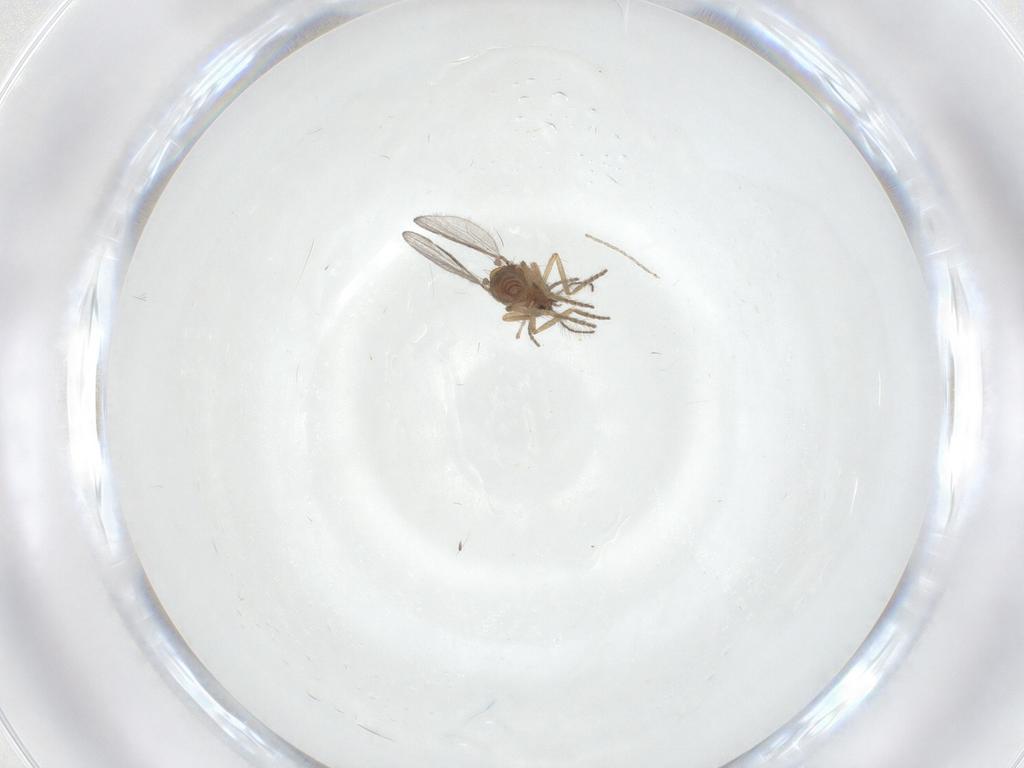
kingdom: Animalia
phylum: Arthropoda
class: Insecta
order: Diptera
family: Ceratopogonidae
